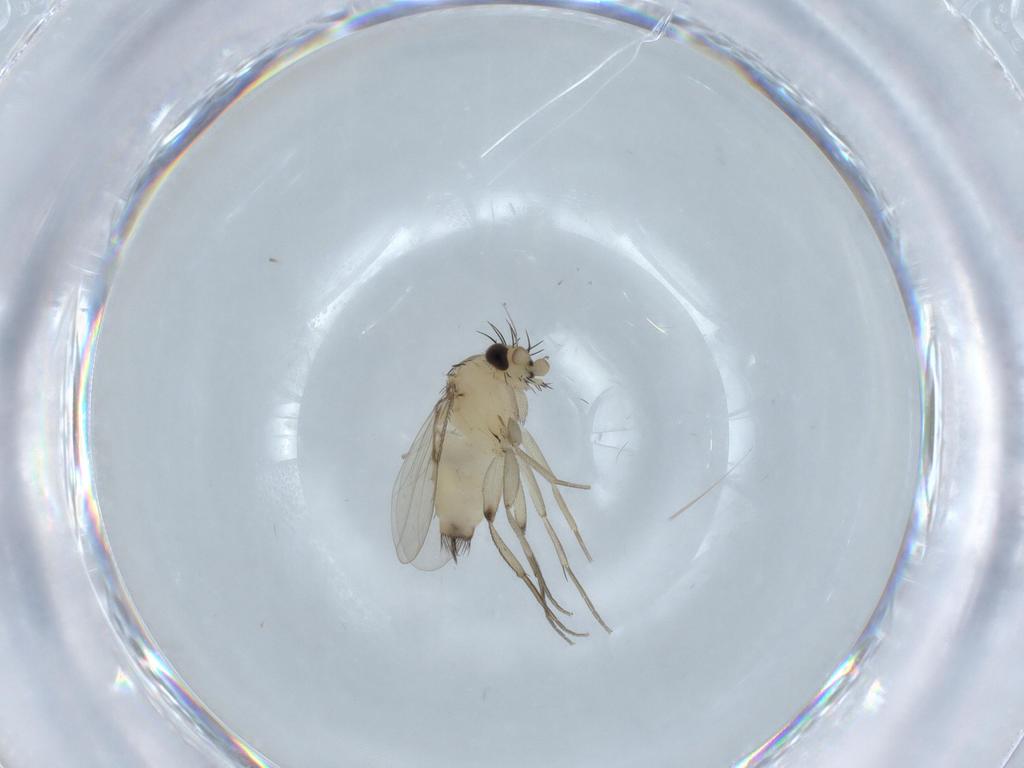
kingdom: Animalia
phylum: Arthropoda
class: Insecta
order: Diptera
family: Phoridae
